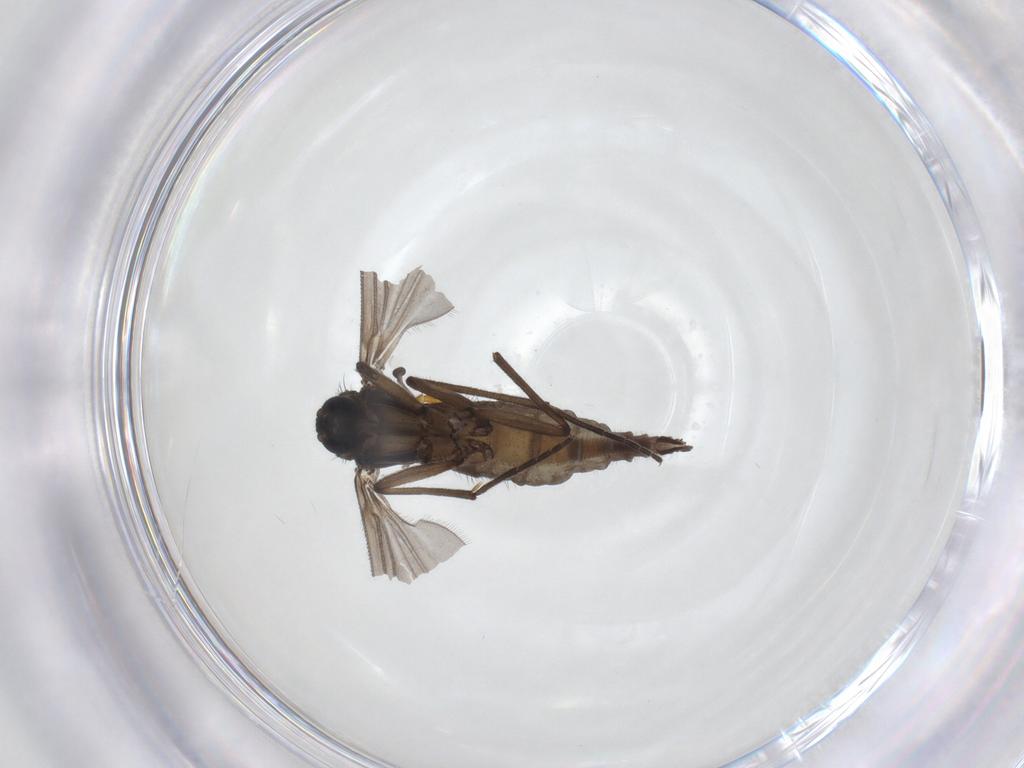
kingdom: Animalia
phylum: Arthropoda
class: Insecta
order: Diptera
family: Sciaridae
